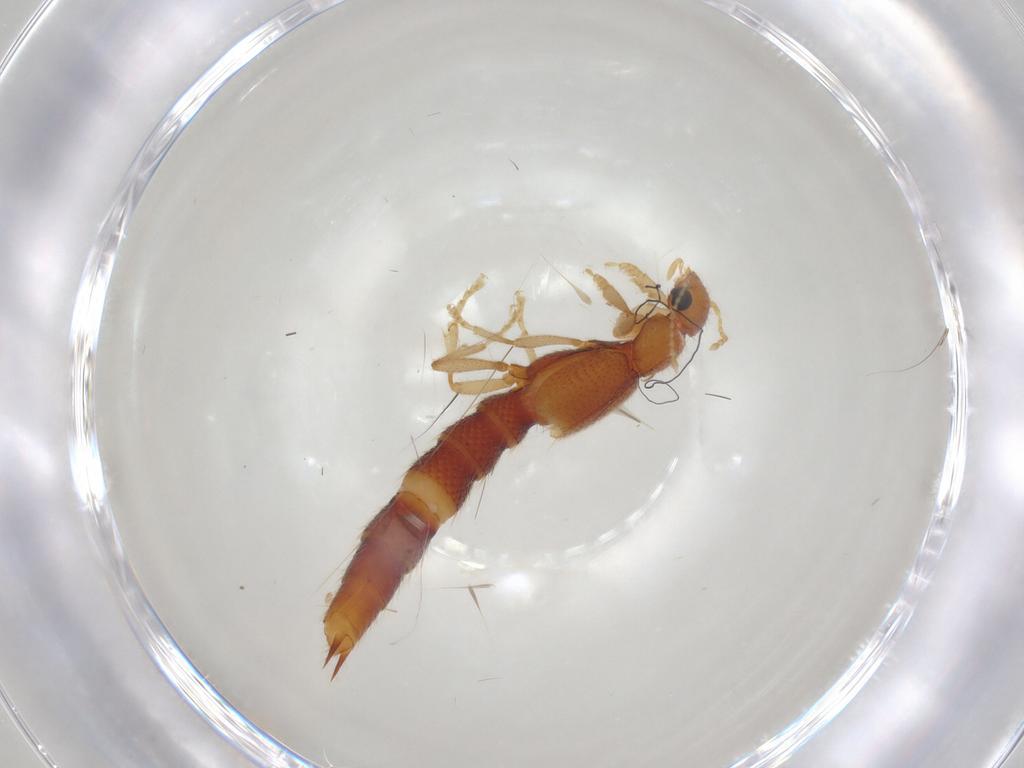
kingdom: Animalia
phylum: Arthropoda
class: Insecta
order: Coleoptera
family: Staphylinidae
